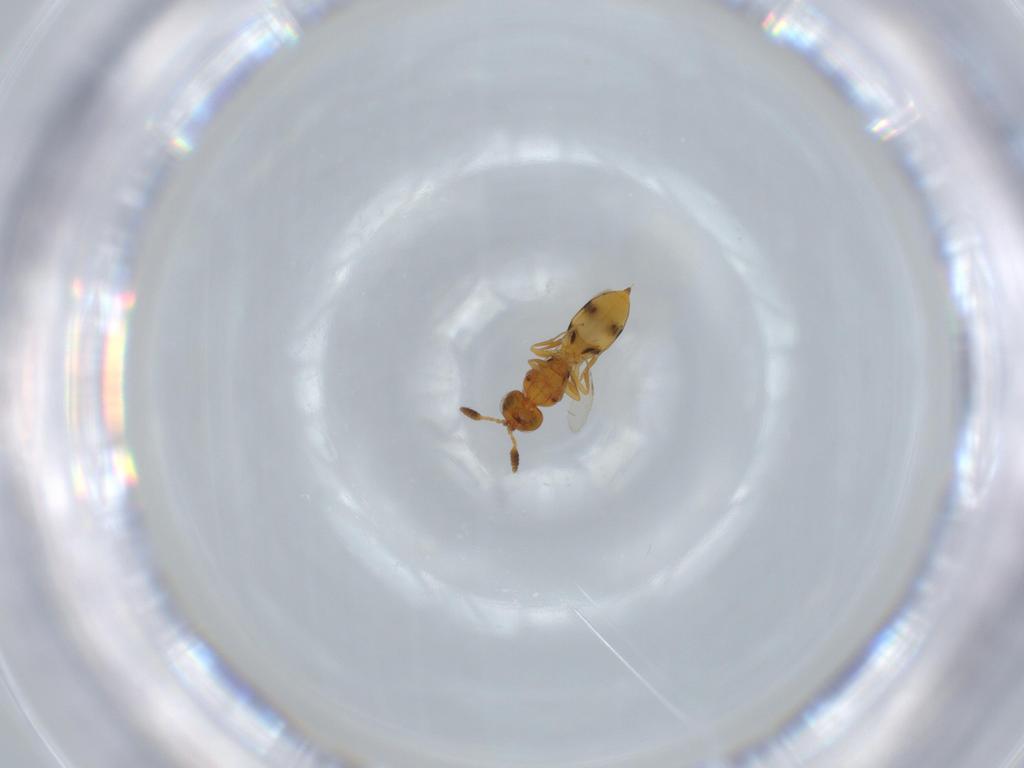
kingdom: Animalia
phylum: Arthropoda
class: Insecta
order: Hymenoptera
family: Scelionidae
